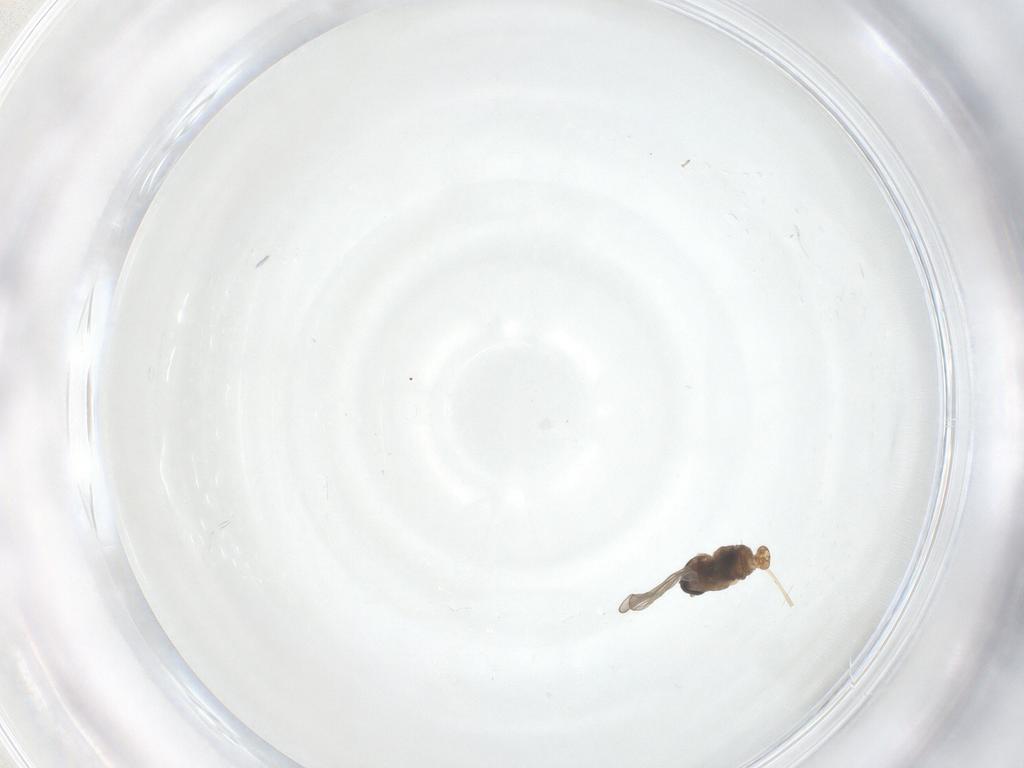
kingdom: Animalia
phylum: Arthropoda
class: Insecta
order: Diptera
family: Cecidomyiidae
